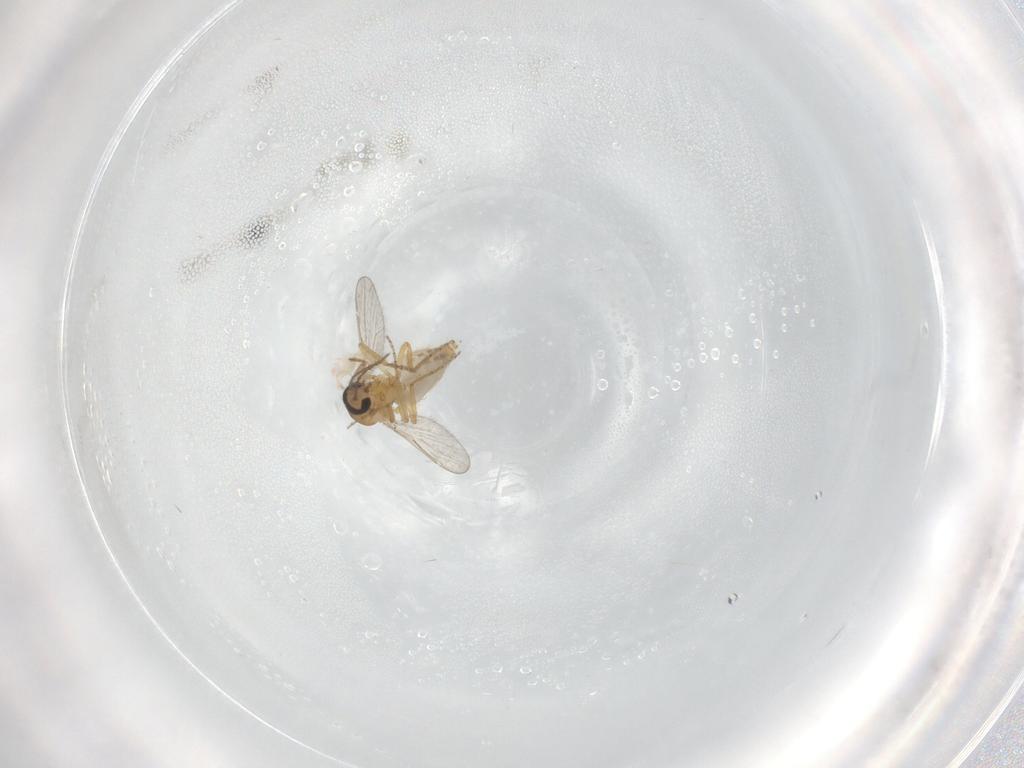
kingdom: Animalia
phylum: Arthropoda
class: Insecta
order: Diptera
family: Ceratopogonidae
